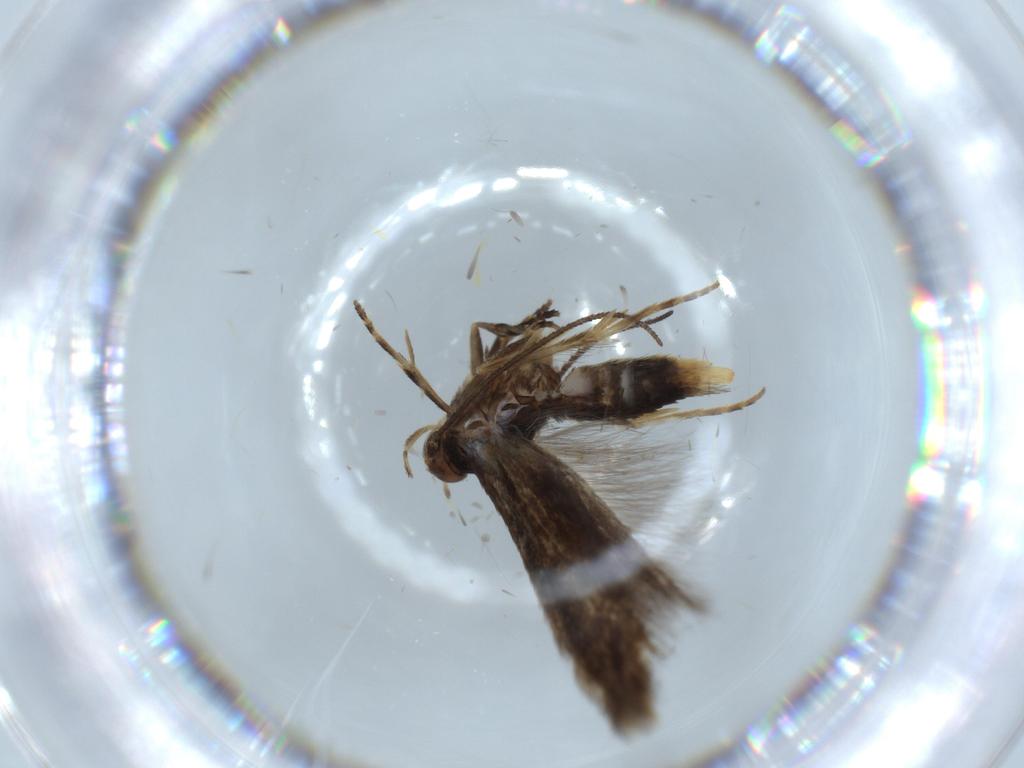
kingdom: Animalia
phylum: Arthropoda
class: Insecta
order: Lepidoptera
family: Elachistidae
